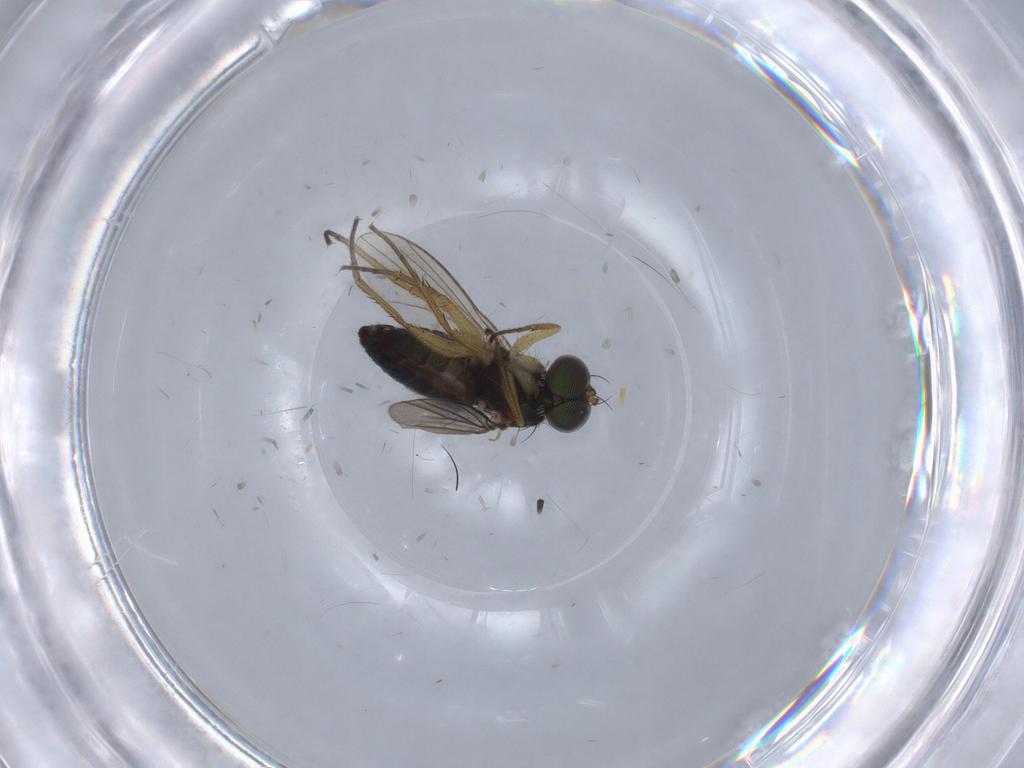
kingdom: Animalia
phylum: Arthropoda
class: Insecta
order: Diptera
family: Dolichopodidae
